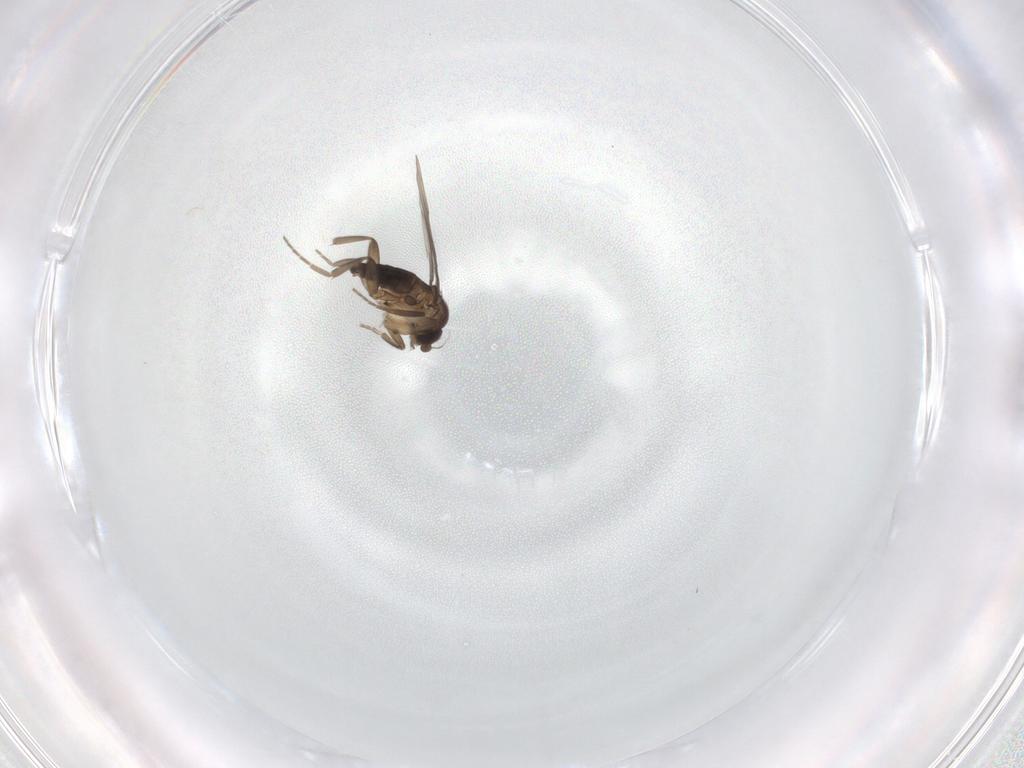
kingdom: Animalia
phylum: Arthropoda
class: Insecta
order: Diptera
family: Phoridae
